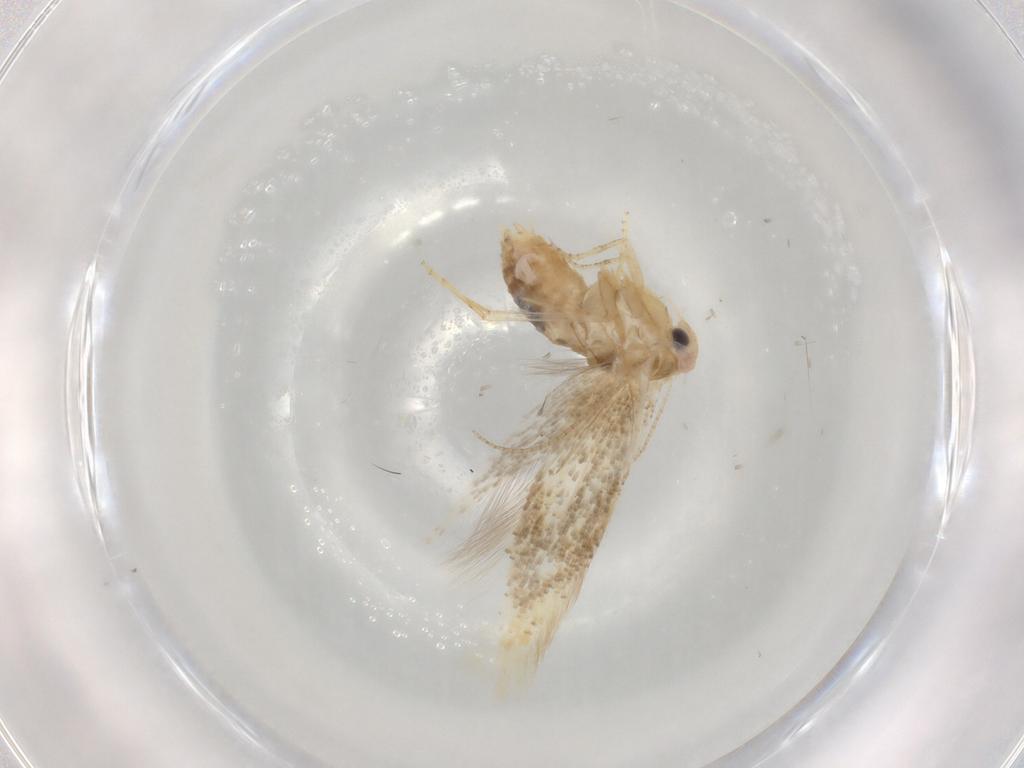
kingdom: Animalia
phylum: Arthropoda
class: Insecta
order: Lepidoptera
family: Bucculatricidae
